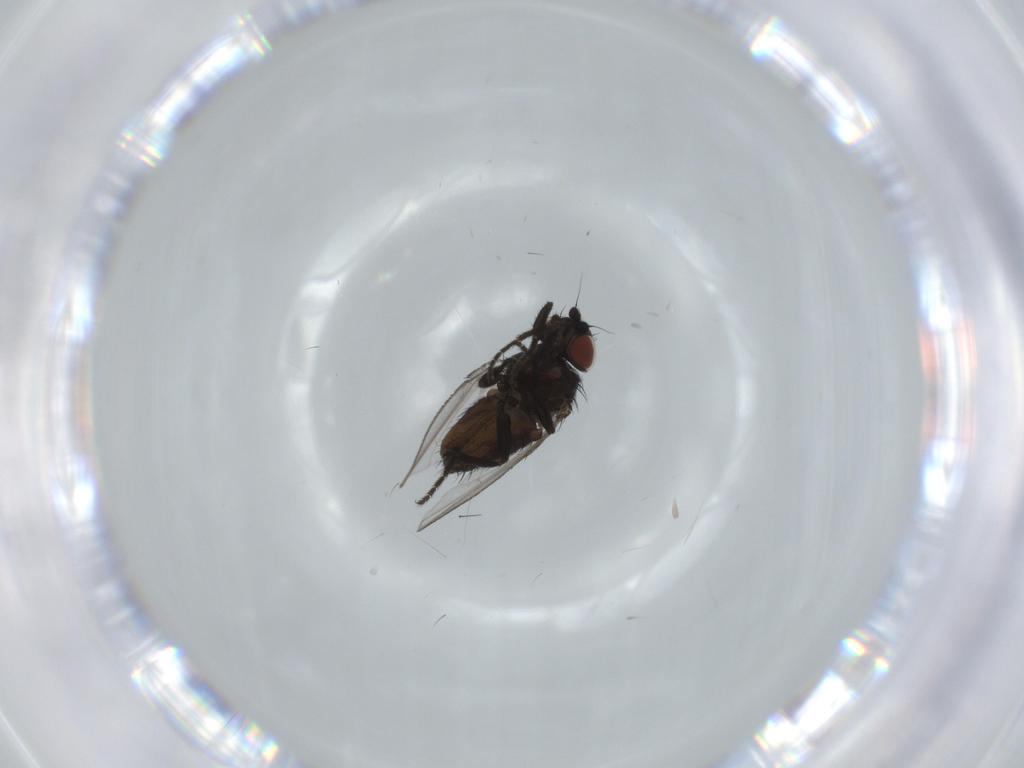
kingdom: Animalia
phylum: Arthropoda
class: Insecta
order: Diptera
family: Milichiidae
